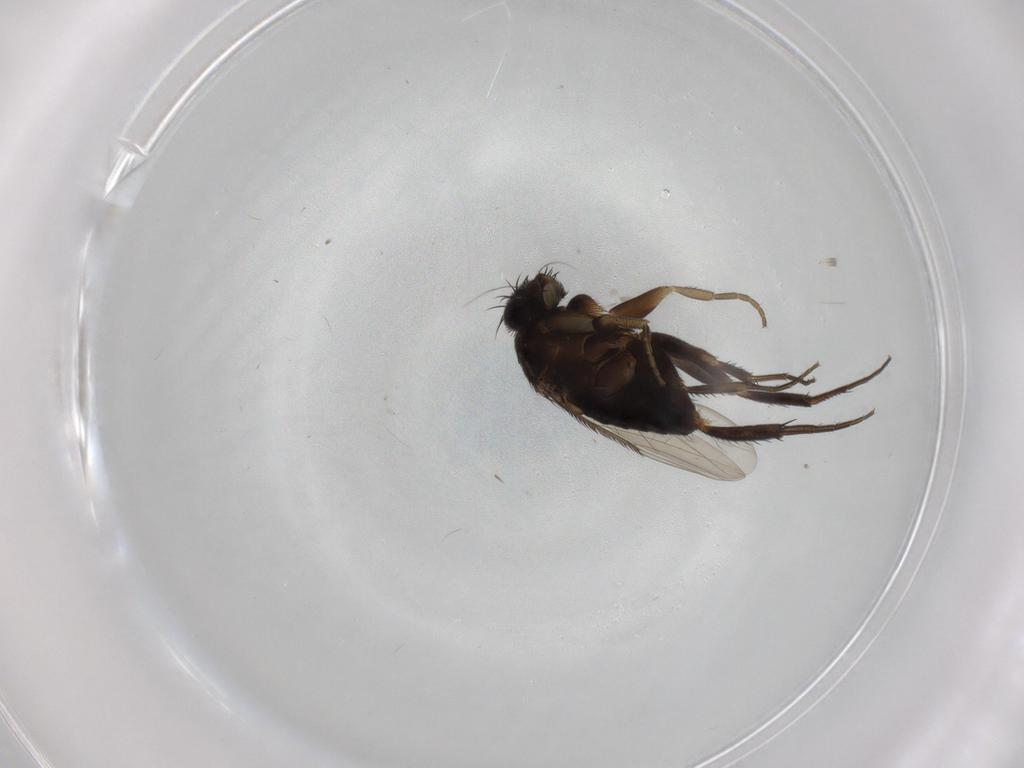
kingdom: Animalia
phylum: Arthropoda
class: Insecta
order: Diptera
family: Phoridae
